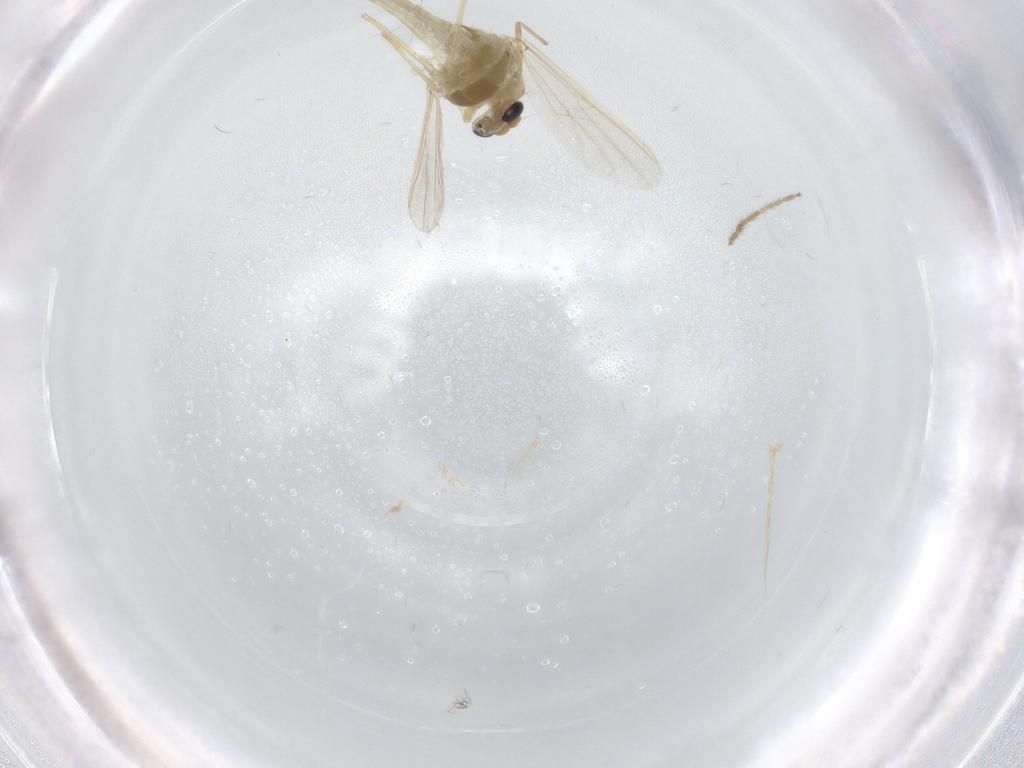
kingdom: Animalia
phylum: Arthropoda
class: Insecta
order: Diptera
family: Chironomidae
